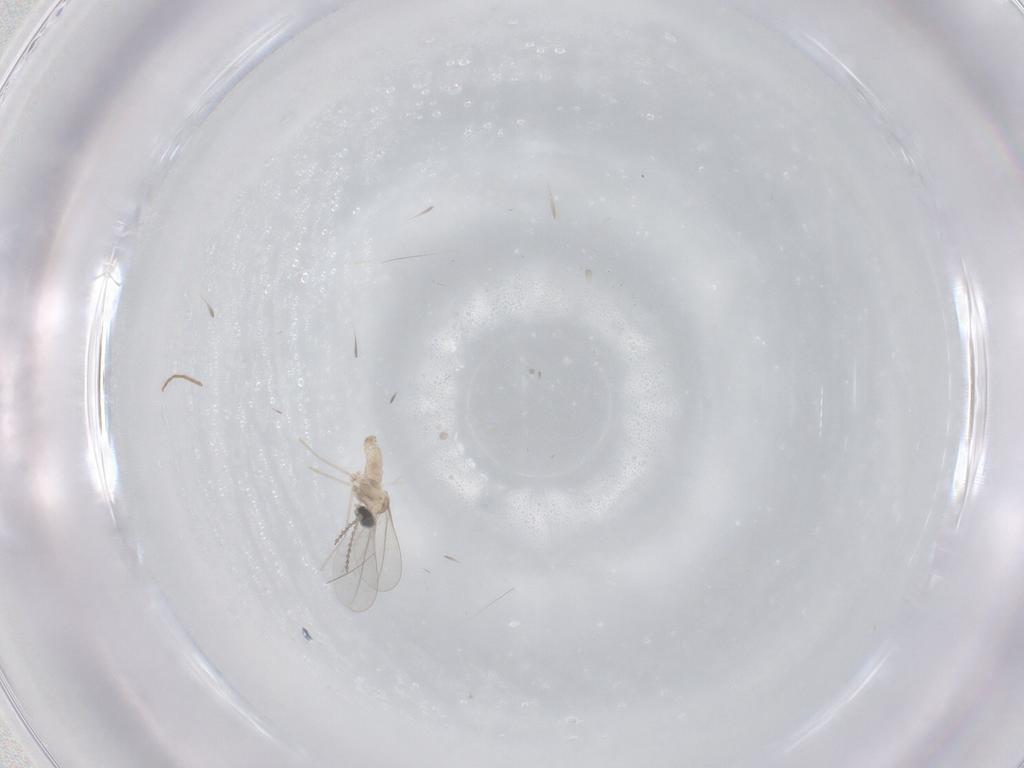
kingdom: Animalia
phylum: Arthropoda
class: Insecta
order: Diptera
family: Cecidomyiidae
